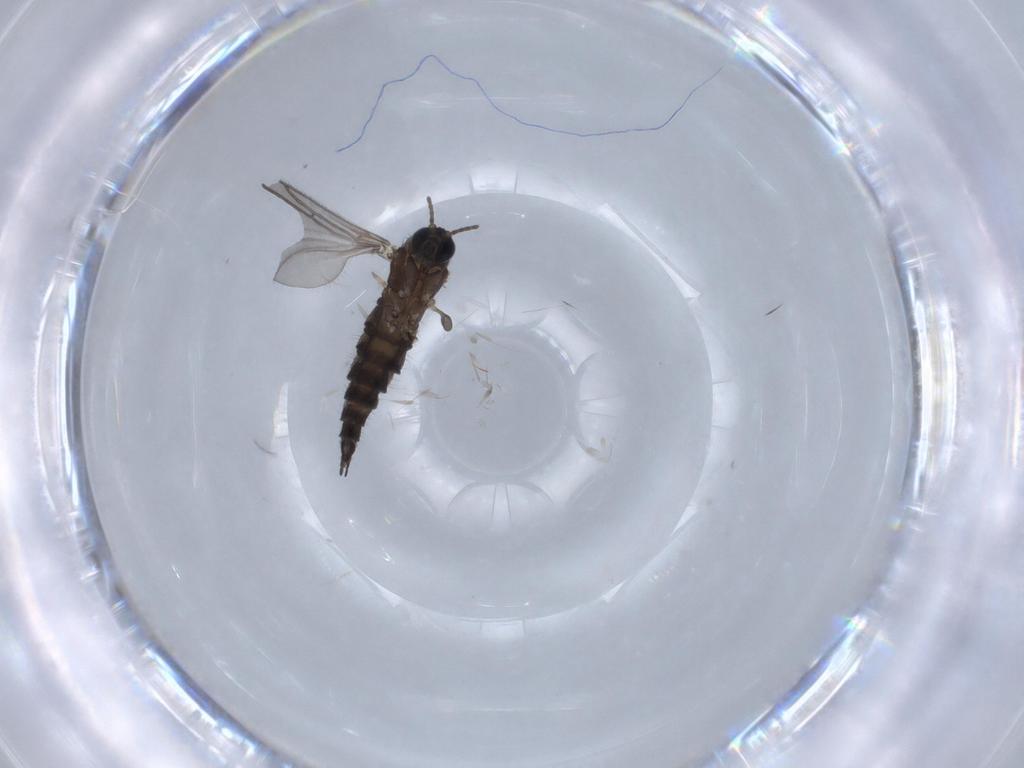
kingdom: Animalia
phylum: Arthropoda
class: Insecta
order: Diptera
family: Sciaridae
